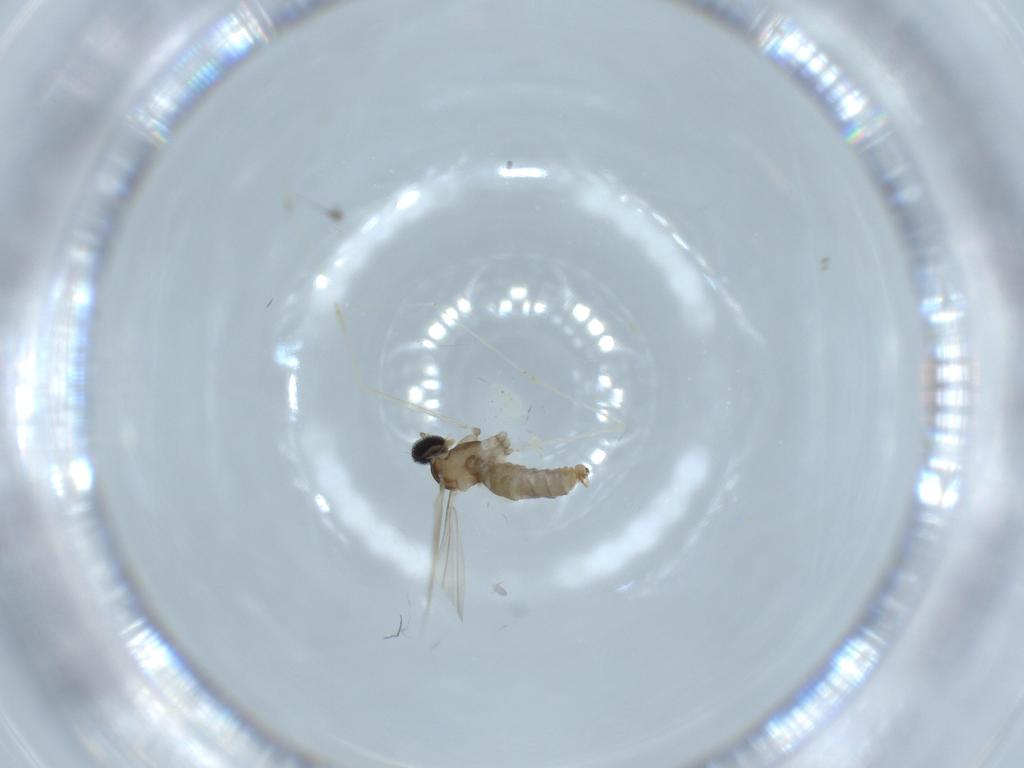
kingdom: Animalia
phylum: Arthropoda
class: Insecta
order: Diptera
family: Cecidomyiidae
